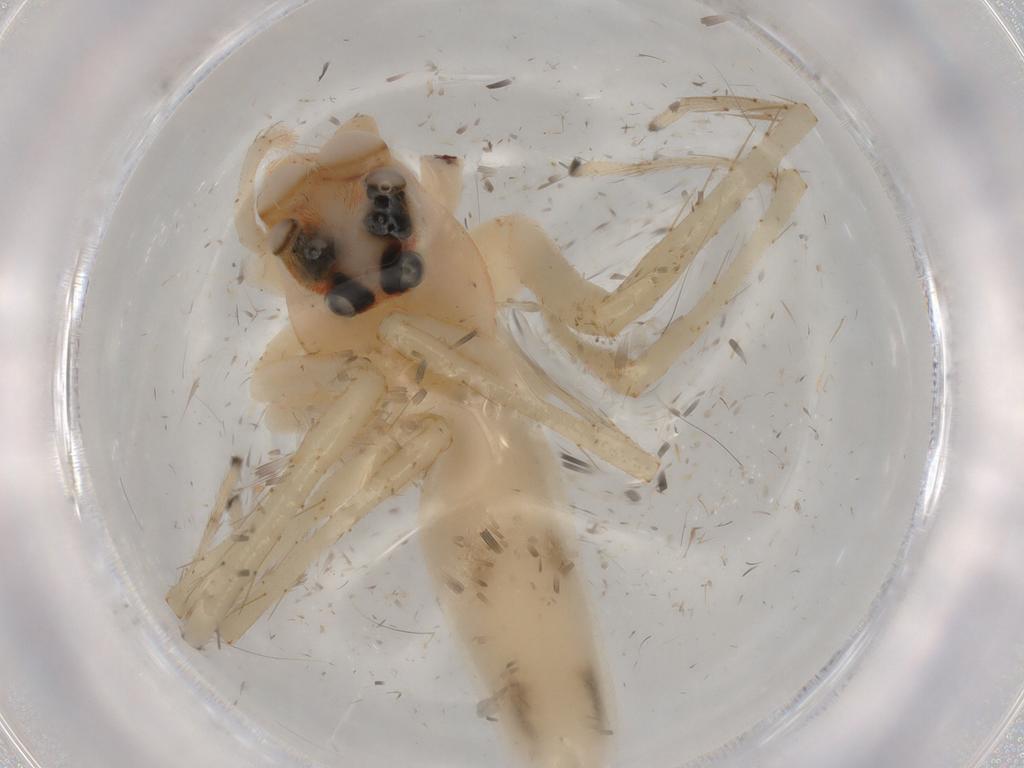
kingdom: Animalia
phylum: Arthropoda
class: Arachnida
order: Araneae
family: Salticidae
